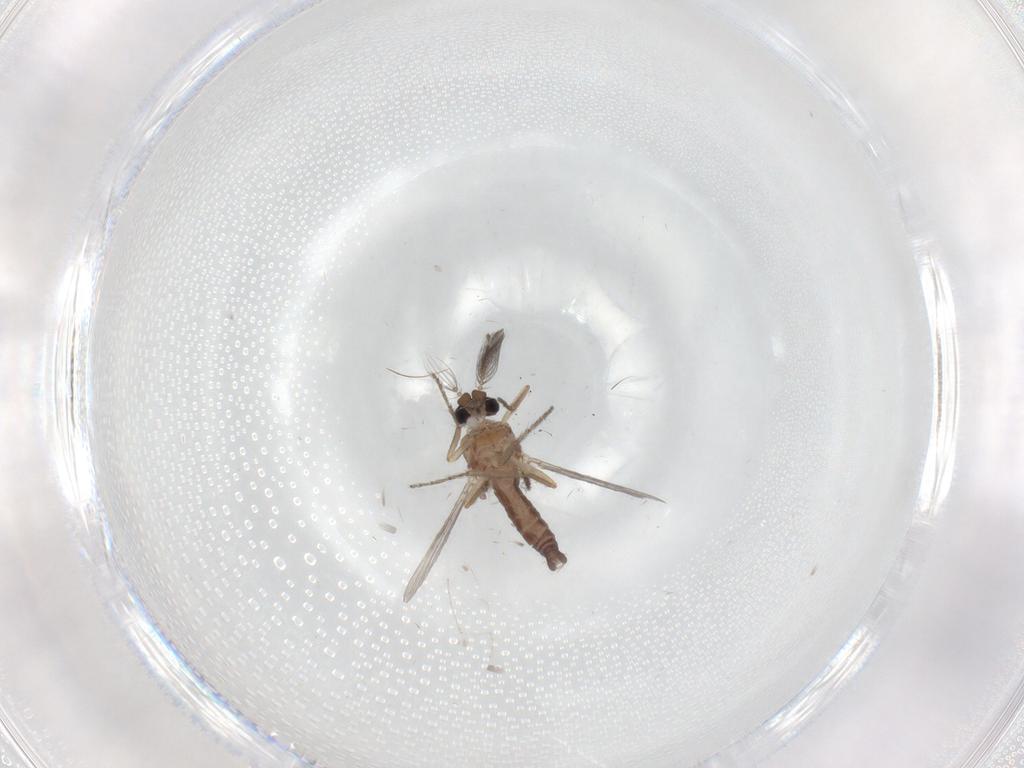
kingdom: Animalia
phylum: Arthropoda
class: Insecta
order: Diptera
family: Ceratopogonidae
